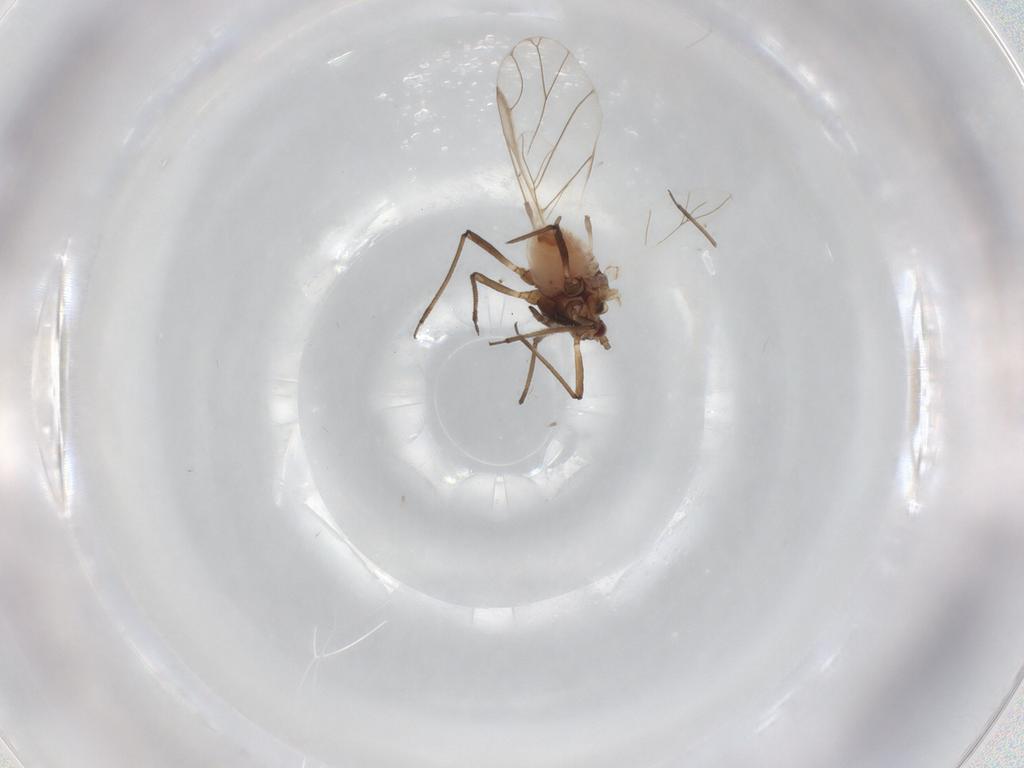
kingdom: Animalia
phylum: Arthropoda
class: Insecta
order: Hemiptera
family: Aphididae
